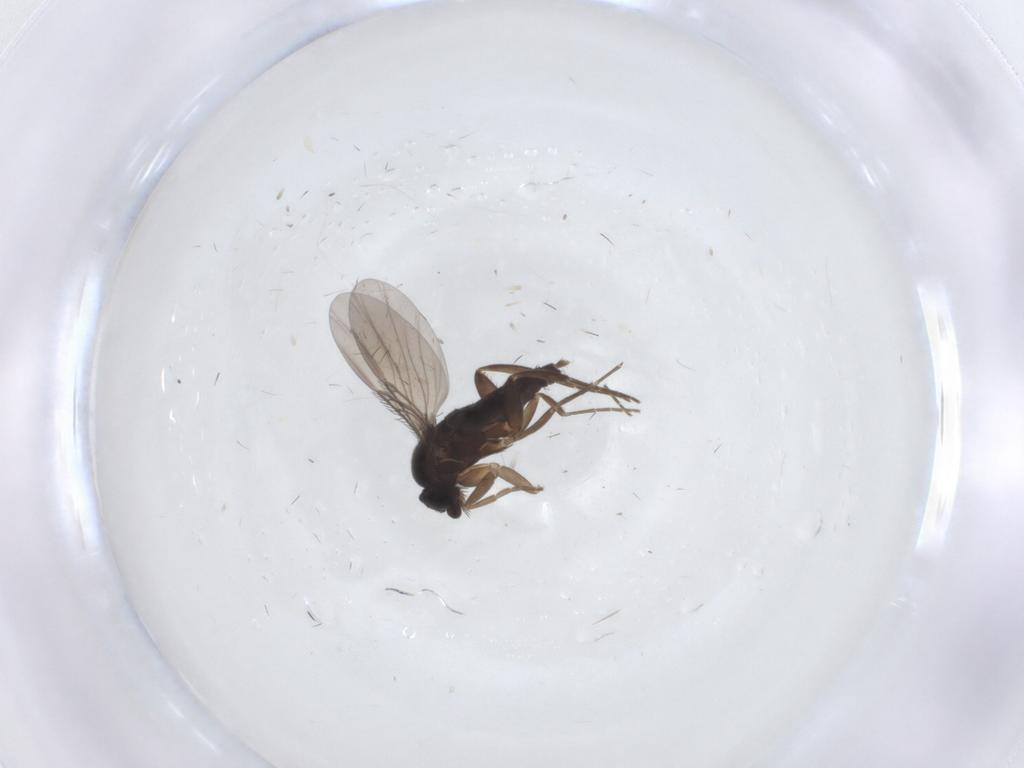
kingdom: Animalia
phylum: Arthropoda
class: Insecta
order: Diptera
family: Phoridae
